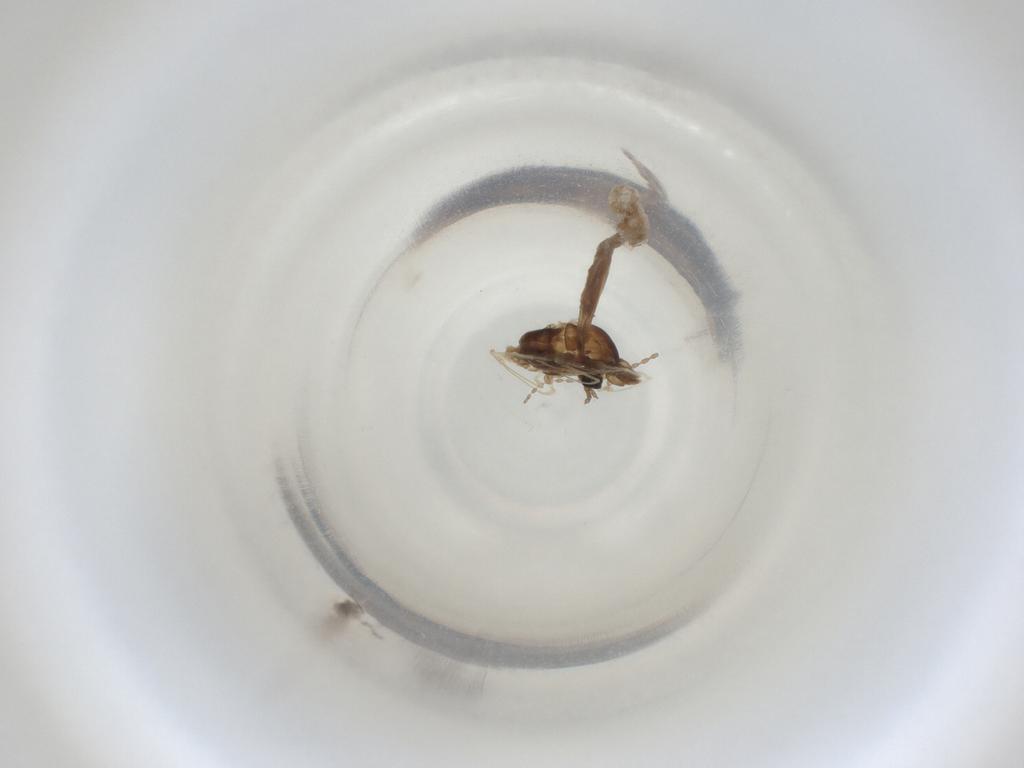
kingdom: Animalia
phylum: Arthropoda
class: Insecta
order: Diptera
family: Cecidomyiidae
